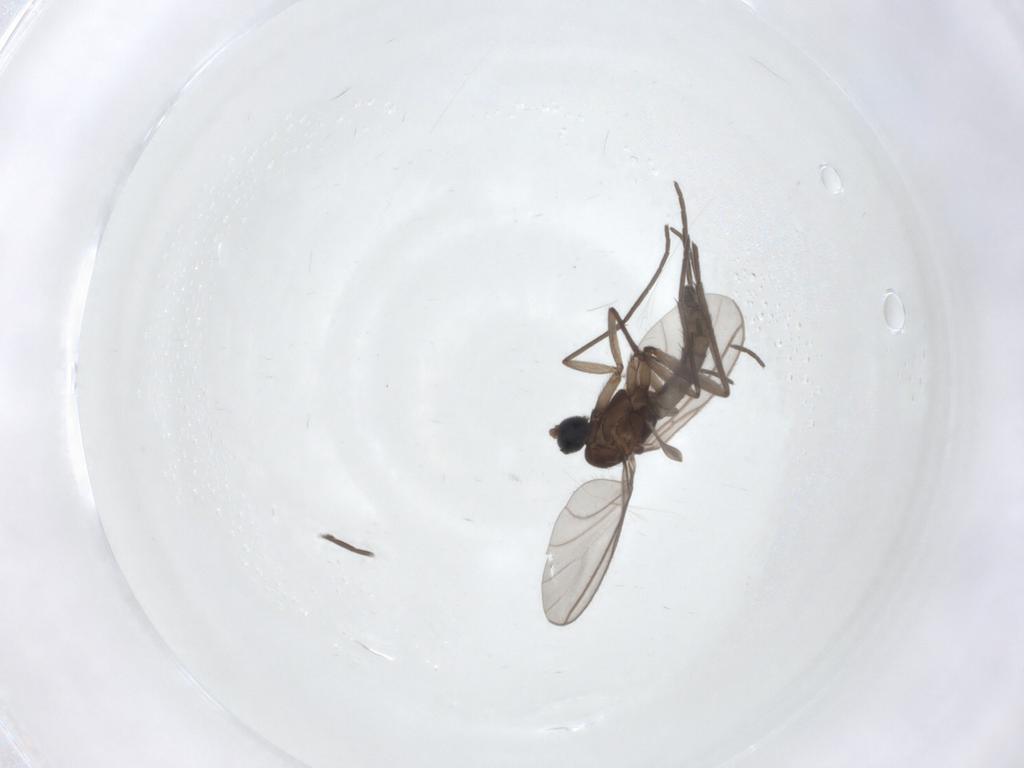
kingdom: Animalia
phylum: Arthropoda
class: Insecta
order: Diptera
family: Sciaridae
